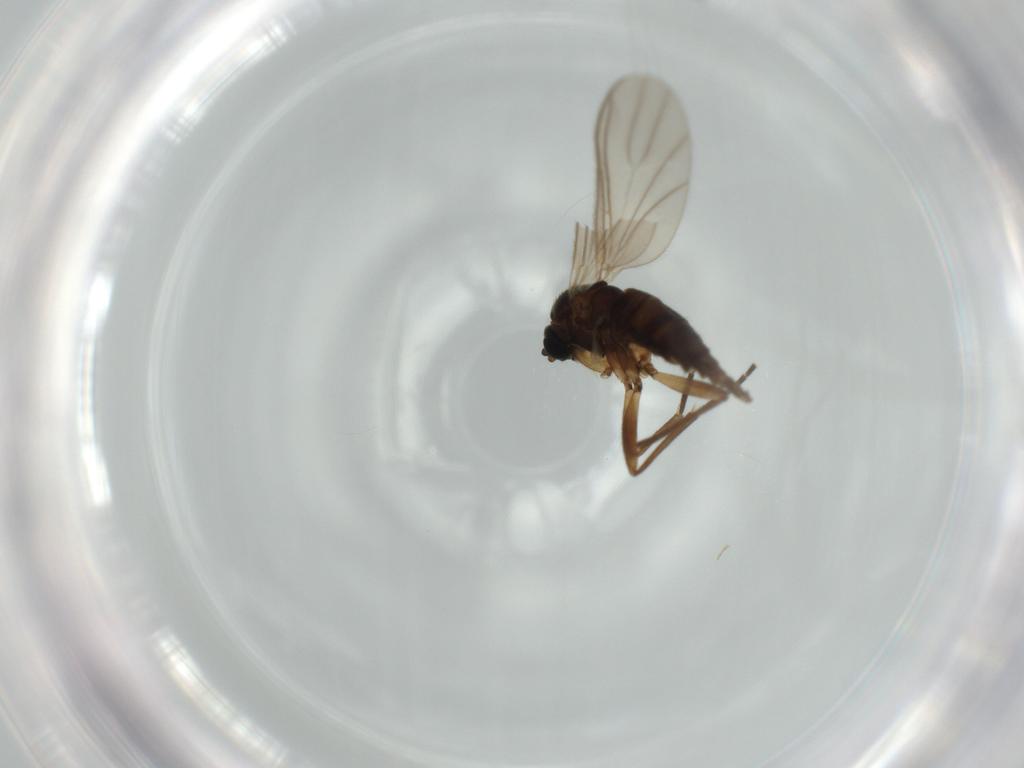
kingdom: Animalia
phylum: Arthropoda
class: Insecta
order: Diptera
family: Sciaridae
